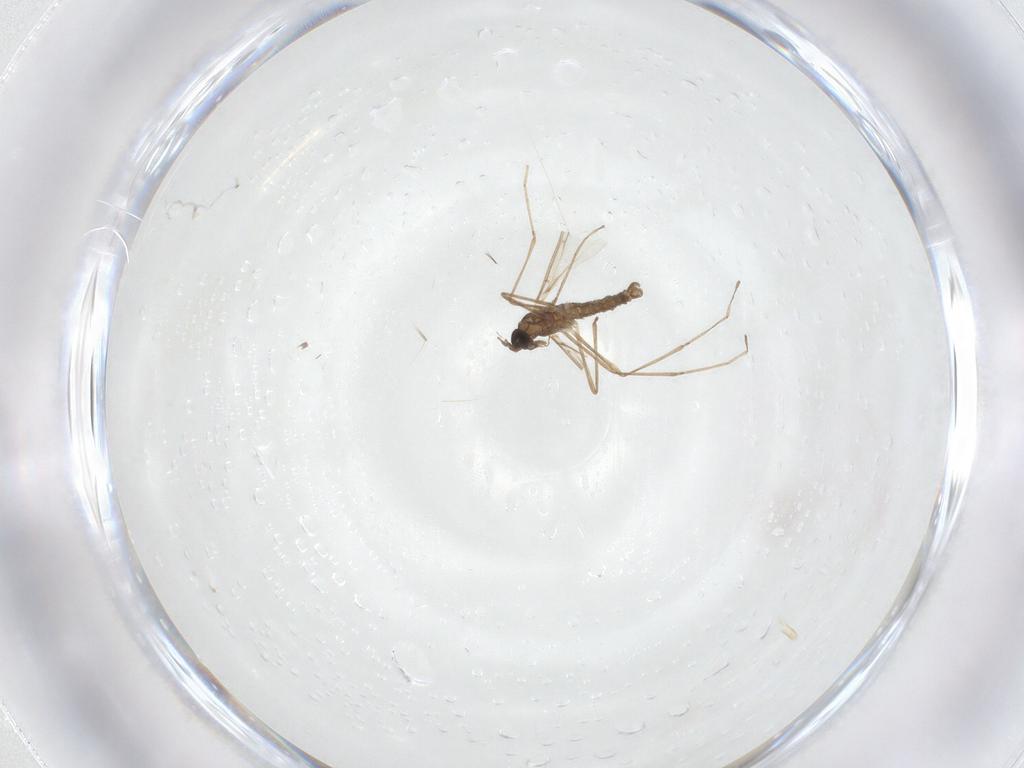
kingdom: Animalia
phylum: Arthropoda
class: Insecta
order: Diptera
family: Cecidomyiidae
